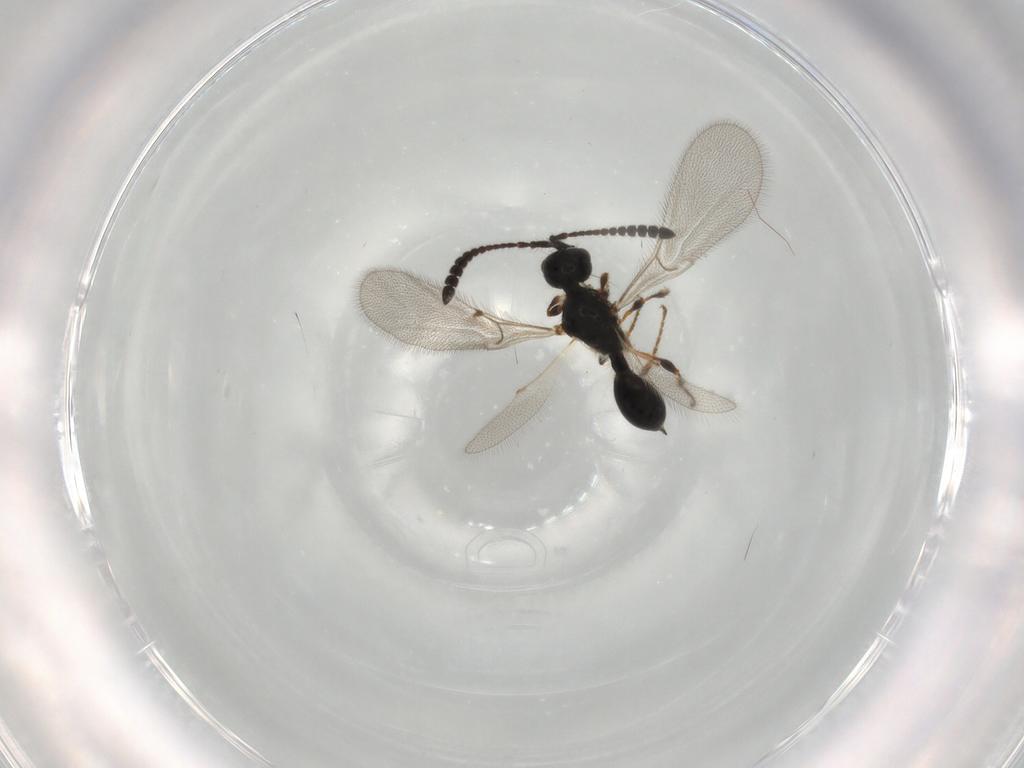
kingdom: Animalia
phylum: Arthropoda
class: Insecta
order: Hymenoptera
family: Diapriidae
